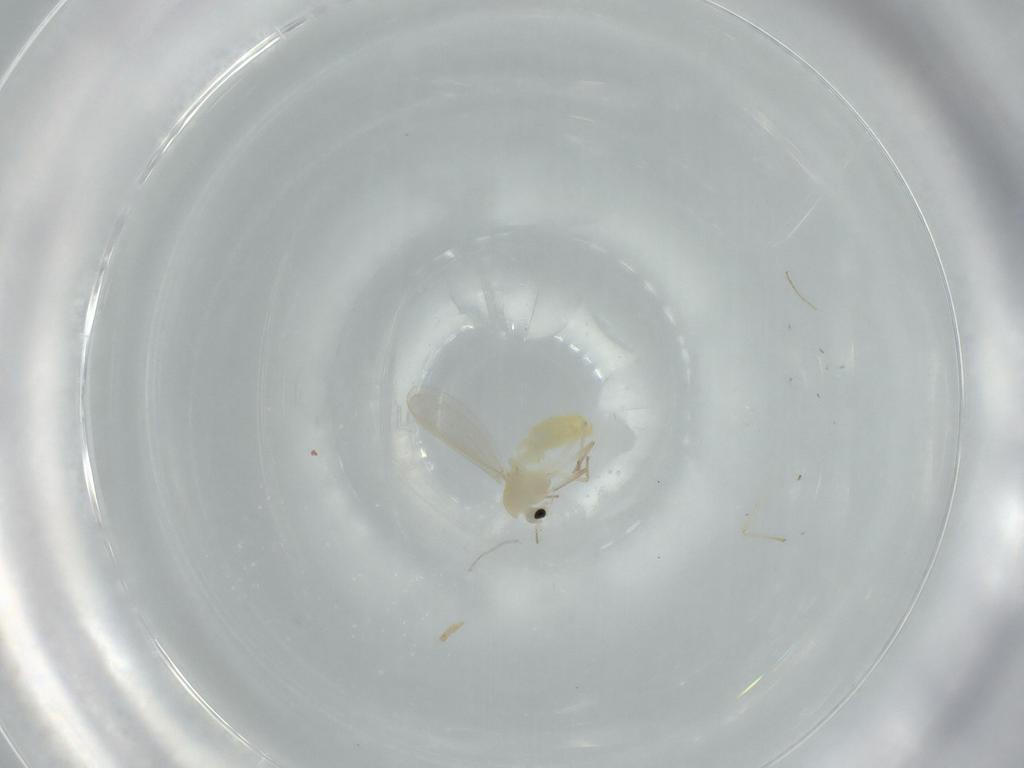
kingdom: Animalia
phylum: Arthropoda
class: Insecta
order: Diptera
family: Chironomidae
